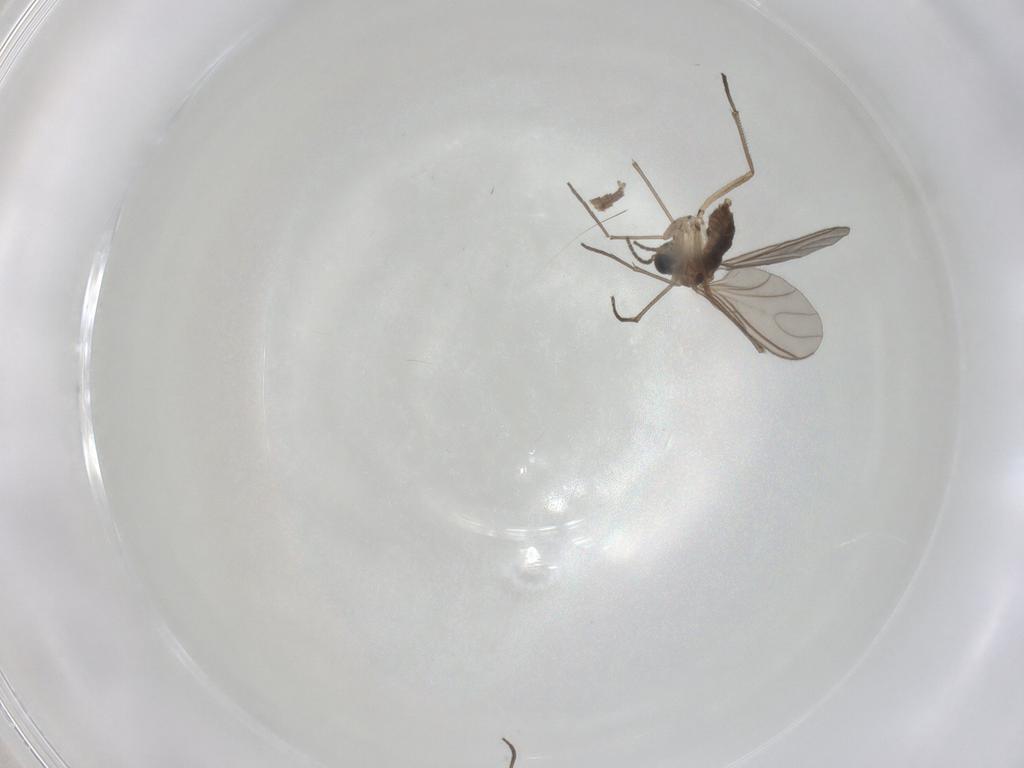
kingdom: Animalia
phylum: Arthropoda
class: Insecta
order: Diptera
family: Sciaridae
